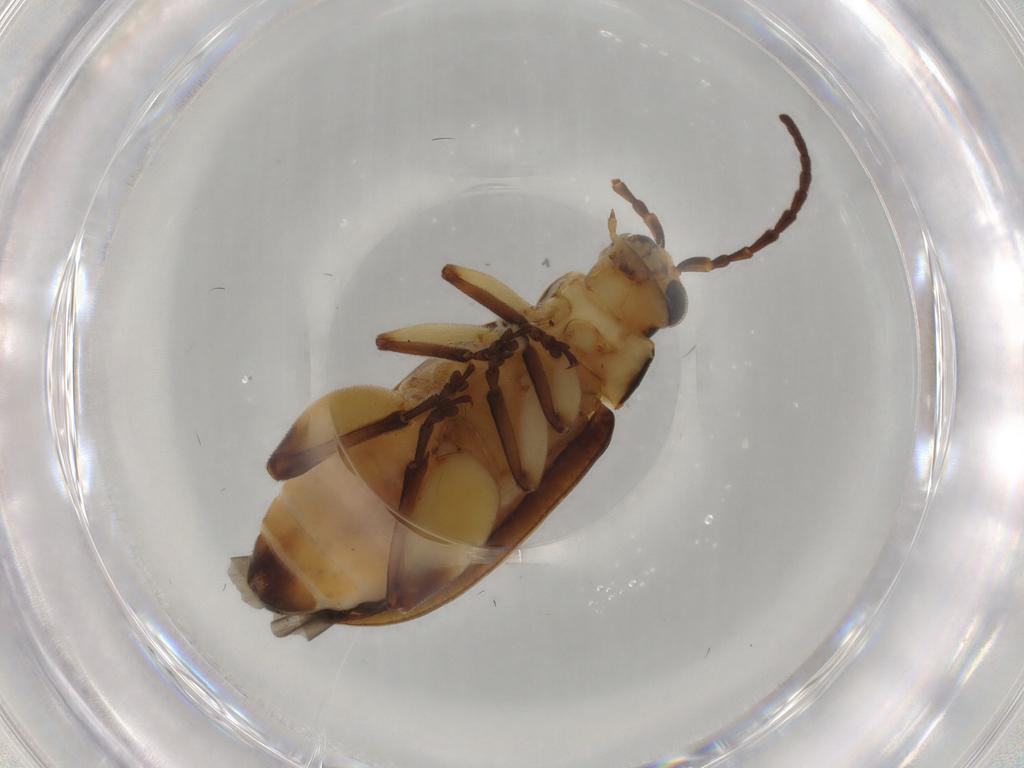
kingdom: Animalia
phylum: Arthropoda
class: Insecta
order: Coleoptera
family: Chrysomelidae
